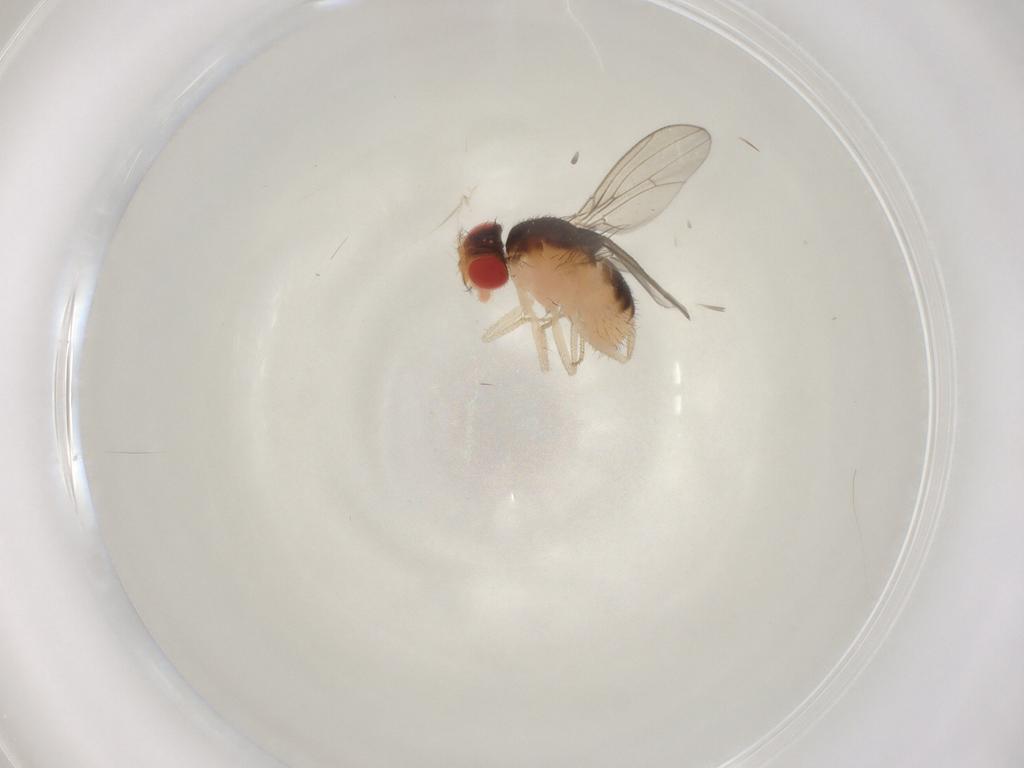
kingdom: Animalia
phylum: Arthropoda
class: Insecta
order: Diptera
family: Drosophilidae
